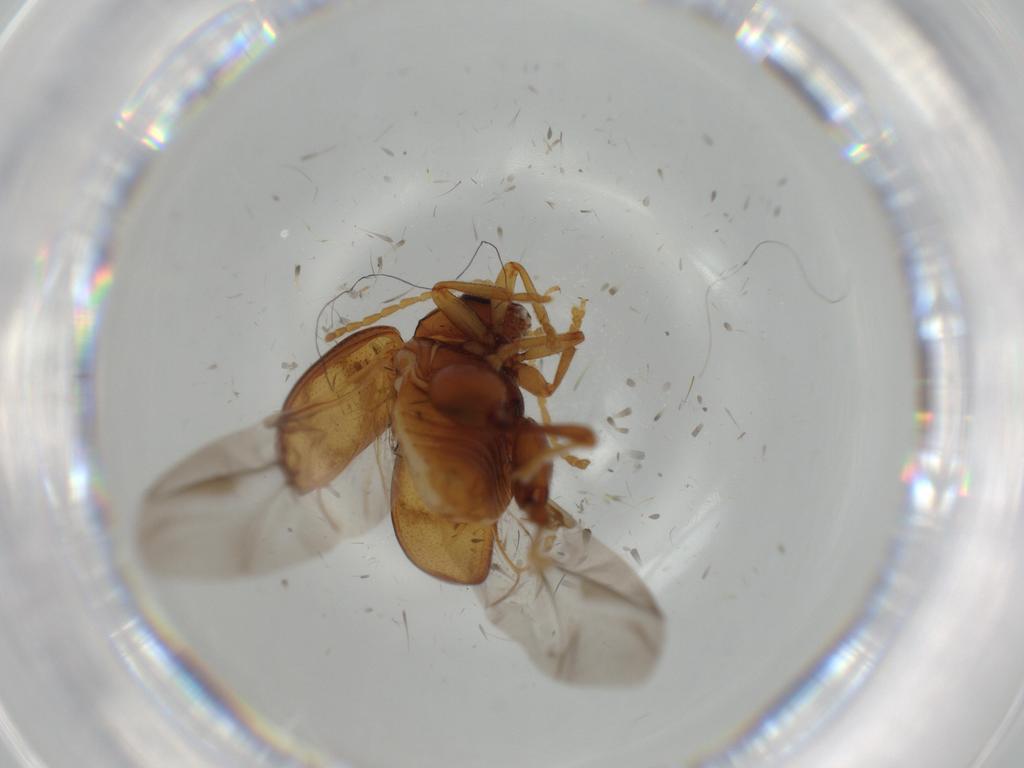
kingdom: Animalia
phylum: Arthropoda
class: Insecta
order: Coleoptera
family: Chrysomelidae
